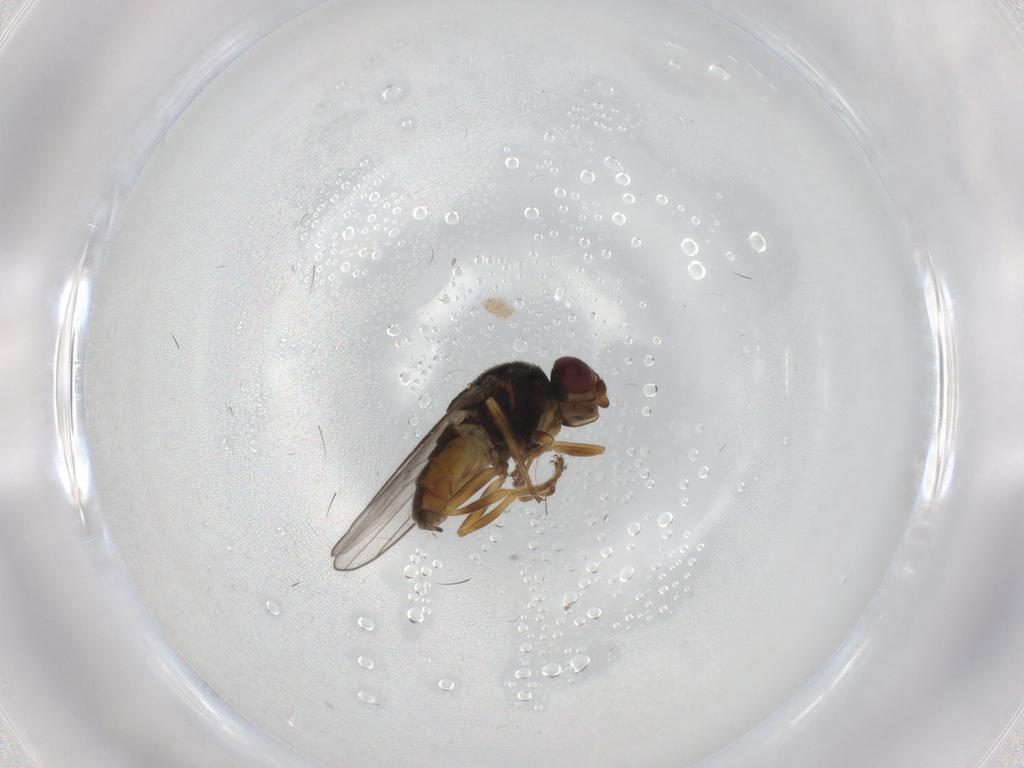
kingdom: Animalia
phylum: Arthropoda
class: Insecta
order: Diptera
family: Chloropidae
